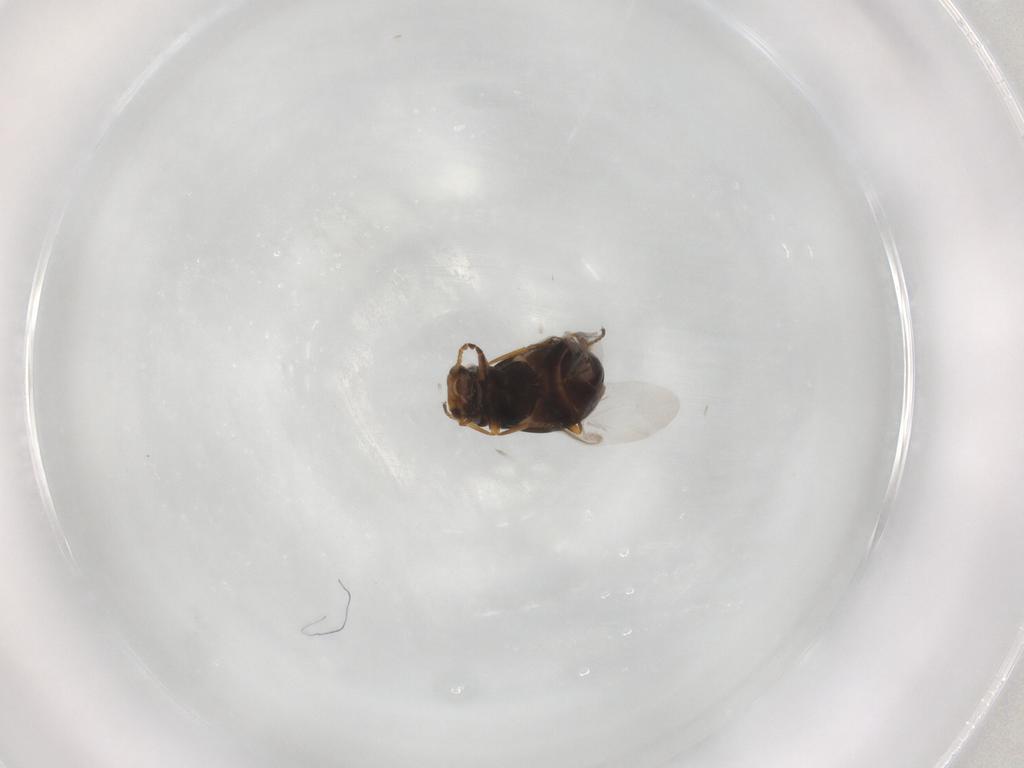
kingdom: Animalia
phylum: Arthropoda
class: Insecta
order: Coleoptera
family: Melyridae
